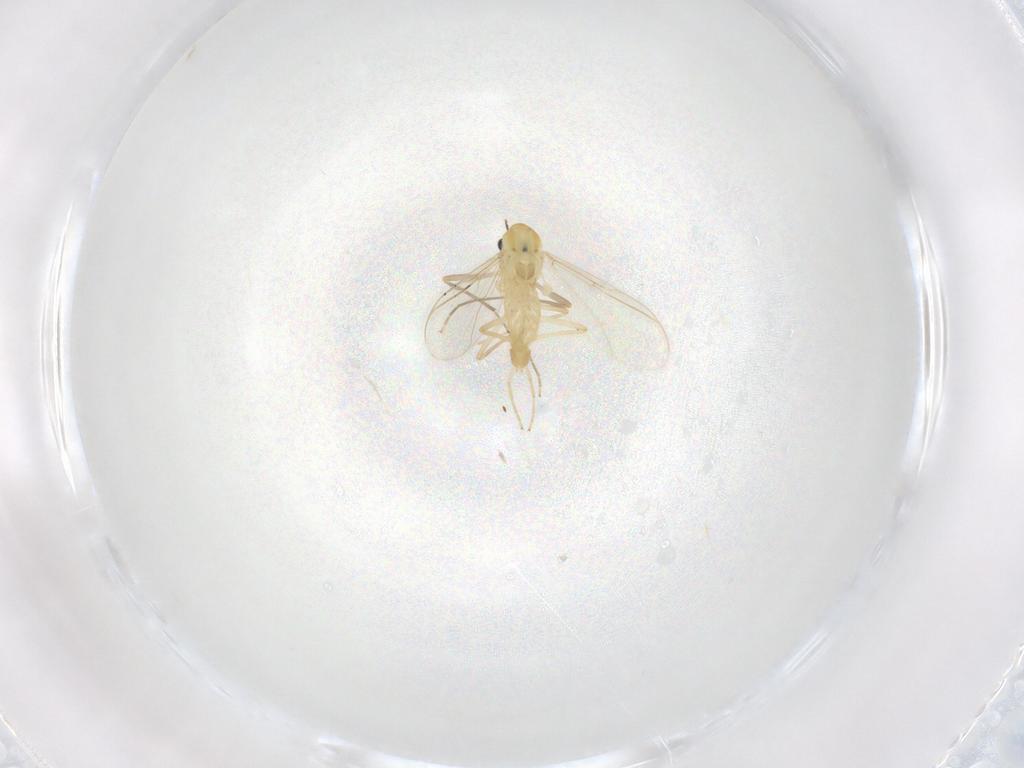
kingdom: Animalia
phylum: Arthropoda
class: Insecta
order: Diptera
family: Chironomidae
